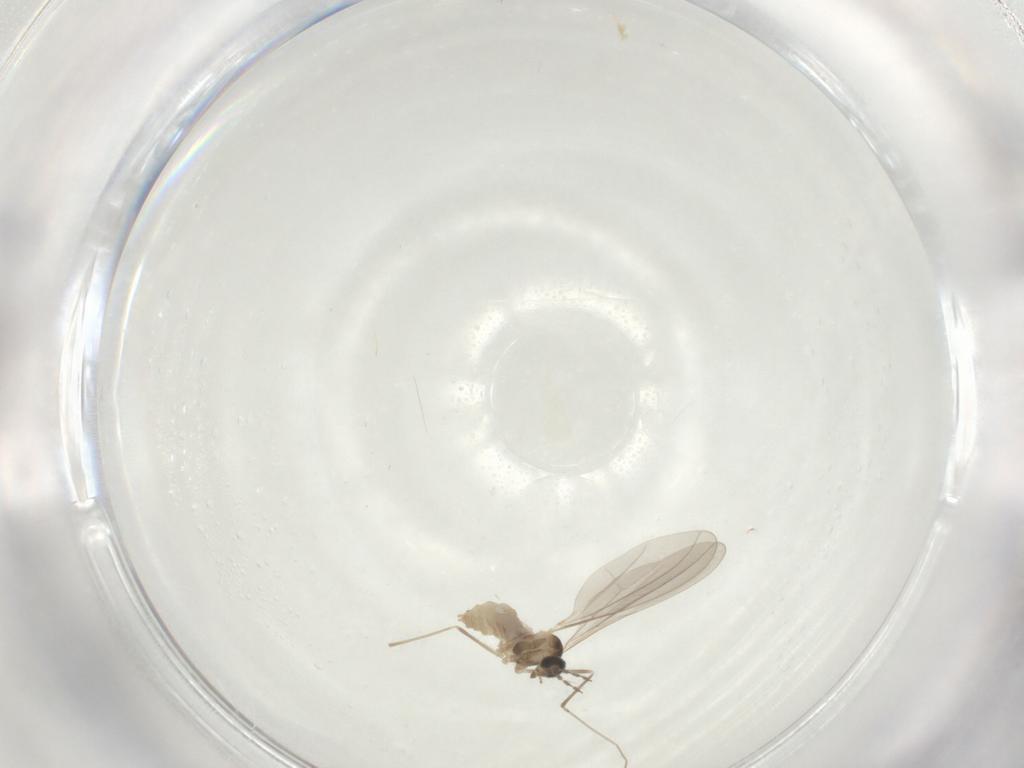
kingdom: Animalia
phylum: Arthropoda
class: Insecta
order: Diptera
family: Cecidomyiidae
